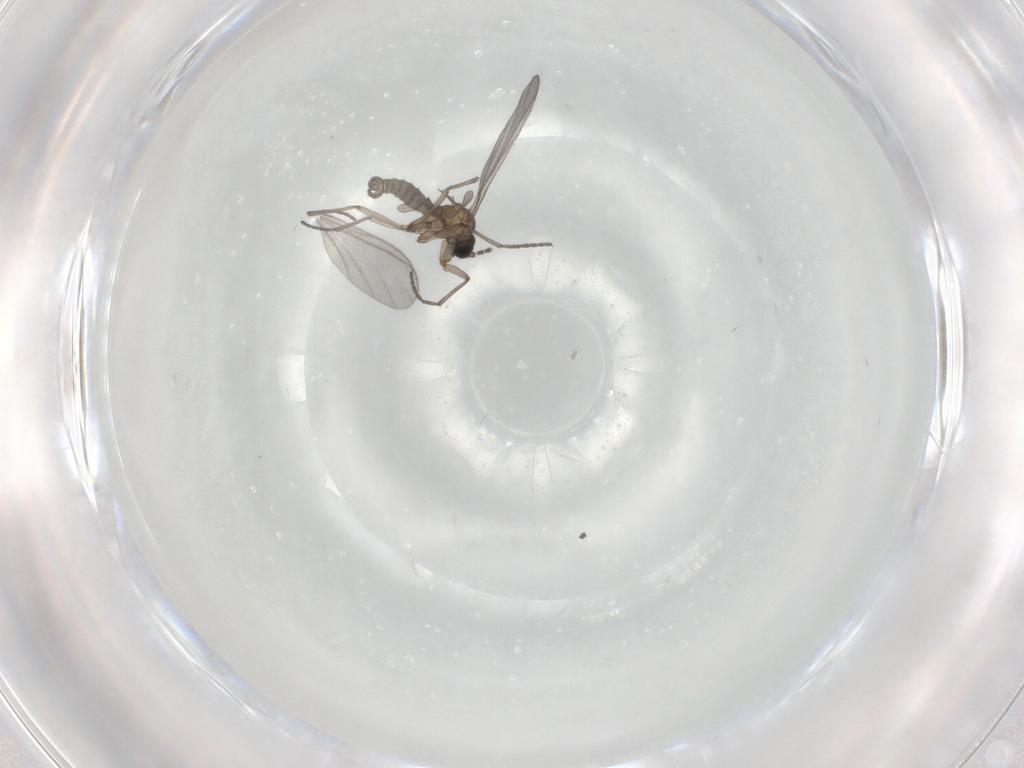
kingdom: Animalia
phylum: Arthropoda
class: Insecta
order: Diptera
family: Sciaridae
